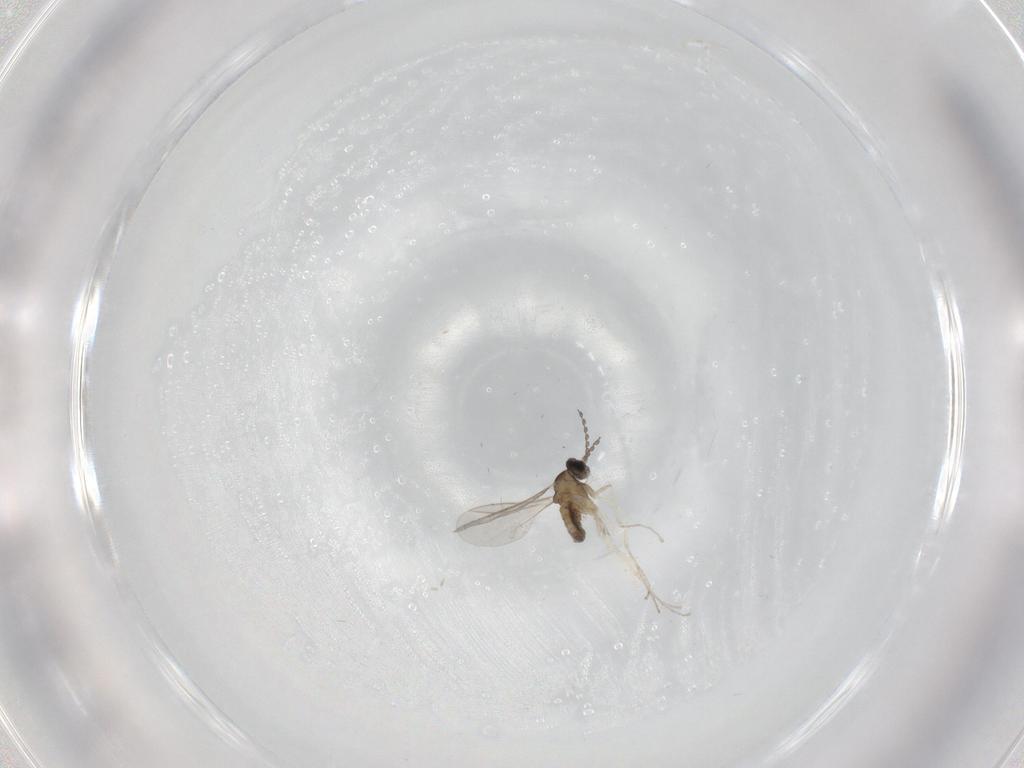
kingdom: Animalia
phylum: Arthropoda
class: Insecta
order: Diptera
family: Cecidomyiidae
